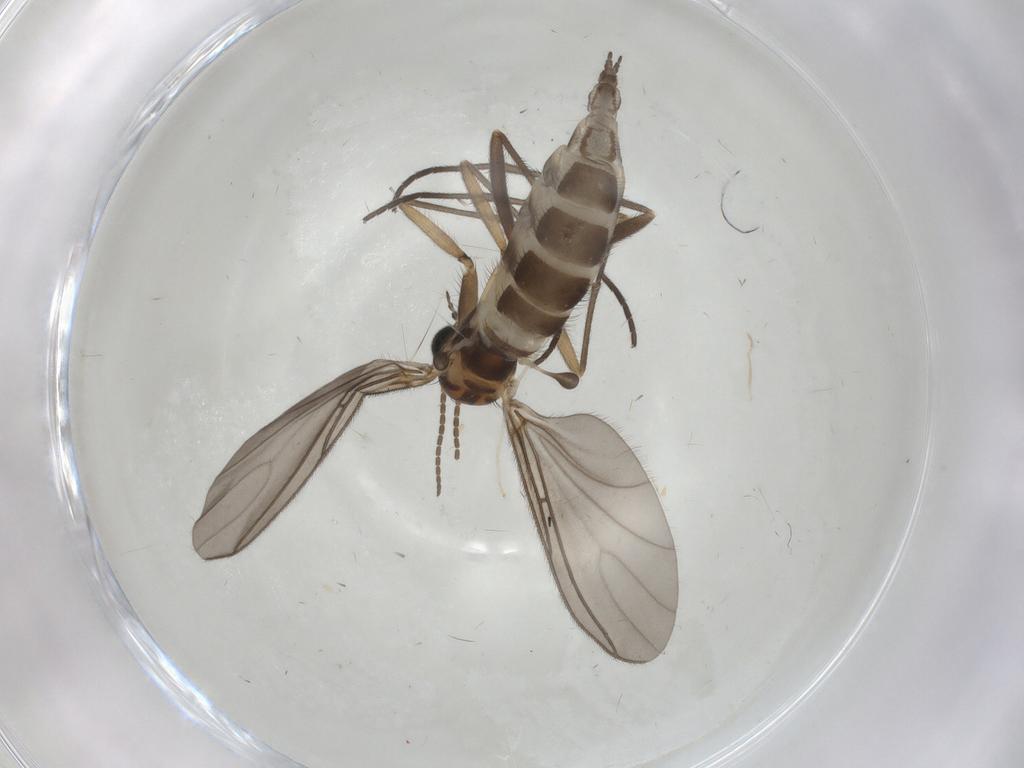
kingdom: Animalia
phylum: Arthropoda
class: Insecta
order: Diptera
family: Sciaridae
